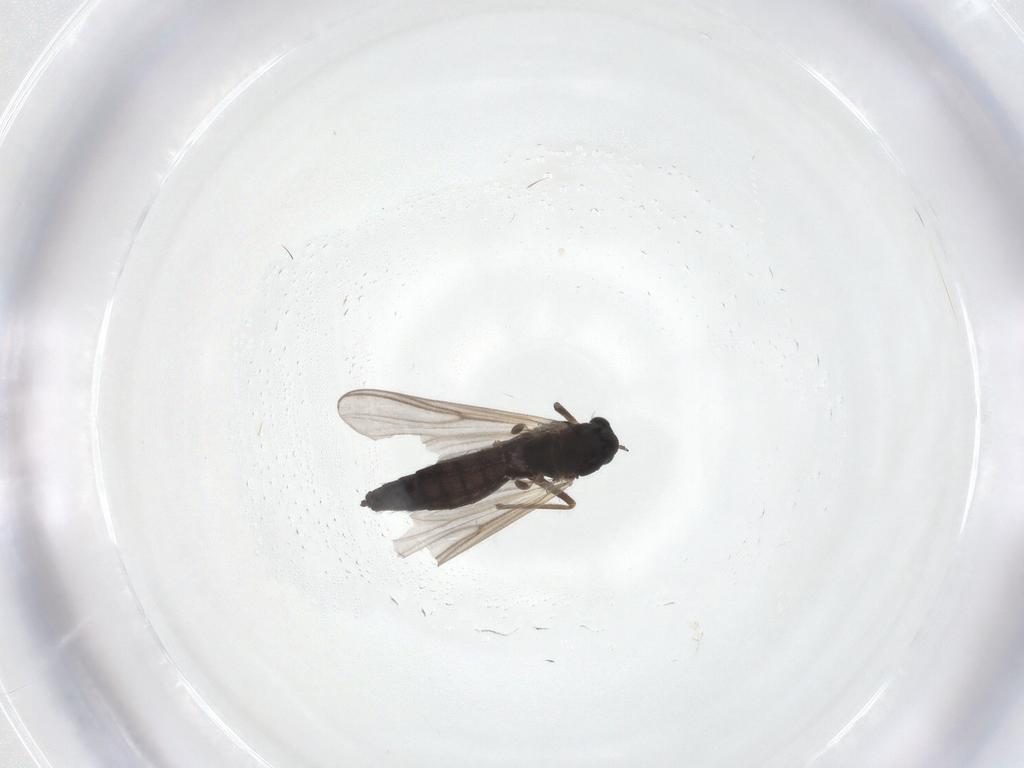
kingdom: Animalia
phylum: Arthropoda
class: Insecta
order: Diptera
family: Chironomidae
